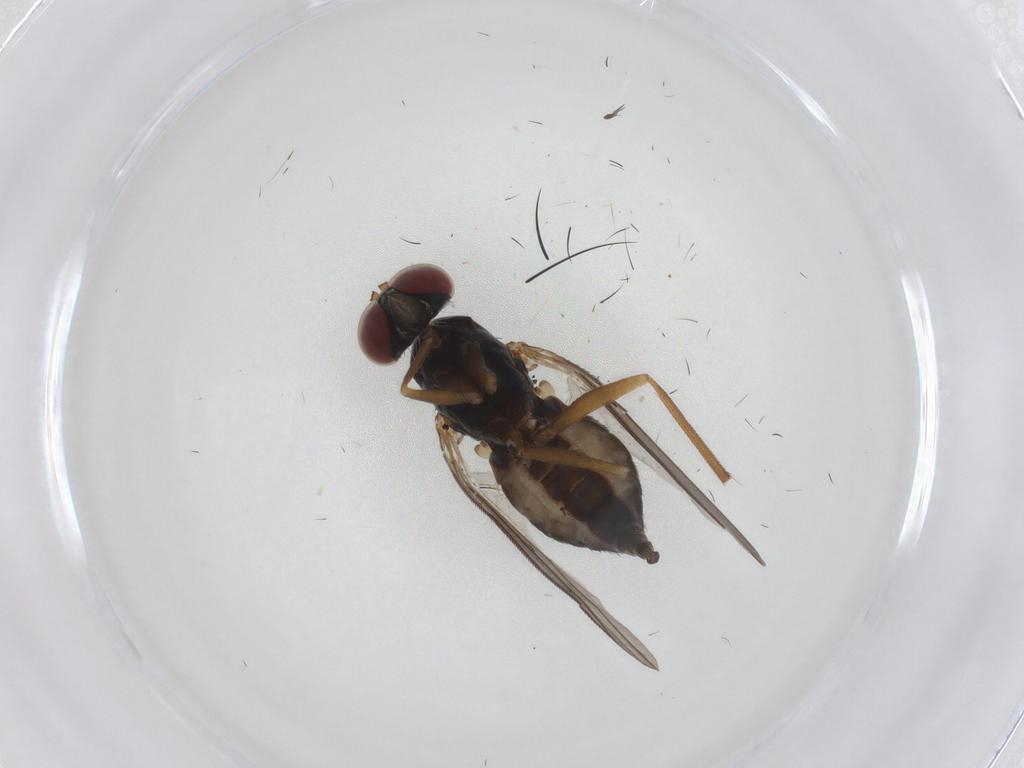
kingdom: Animalia
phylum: Arthropoda
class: Insecta
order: Diptera
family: Dolichopodidae
